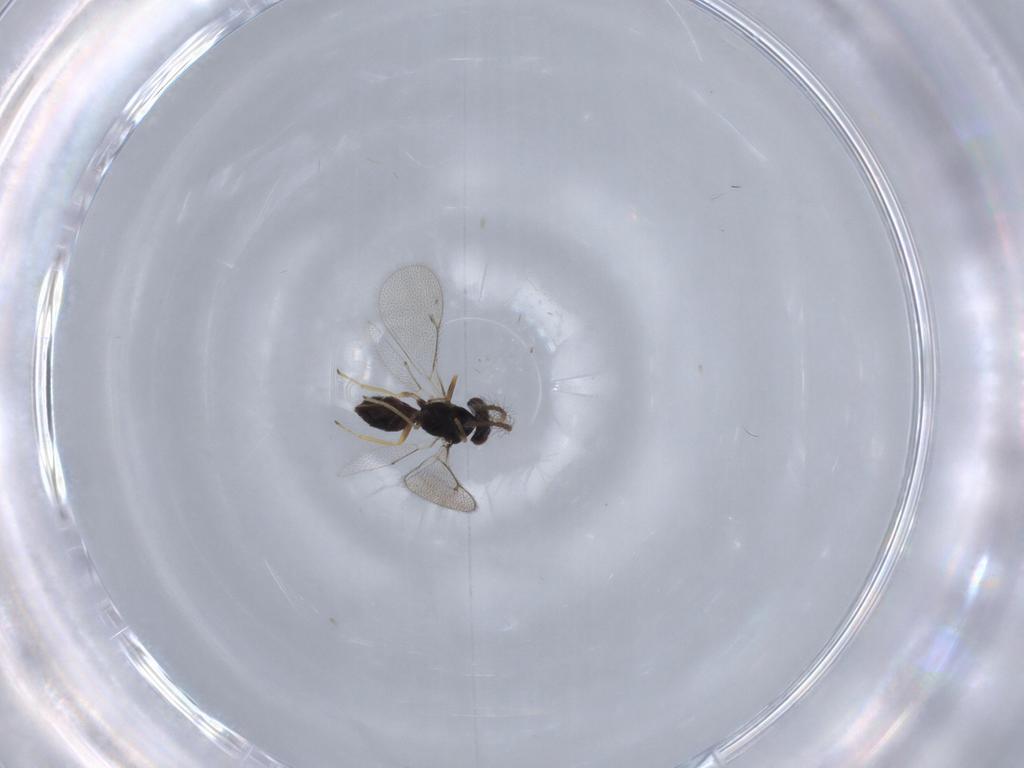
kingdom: Animalia
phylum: Arthropoda
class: Insecta
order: Hymenoptera
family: Eulophidae
